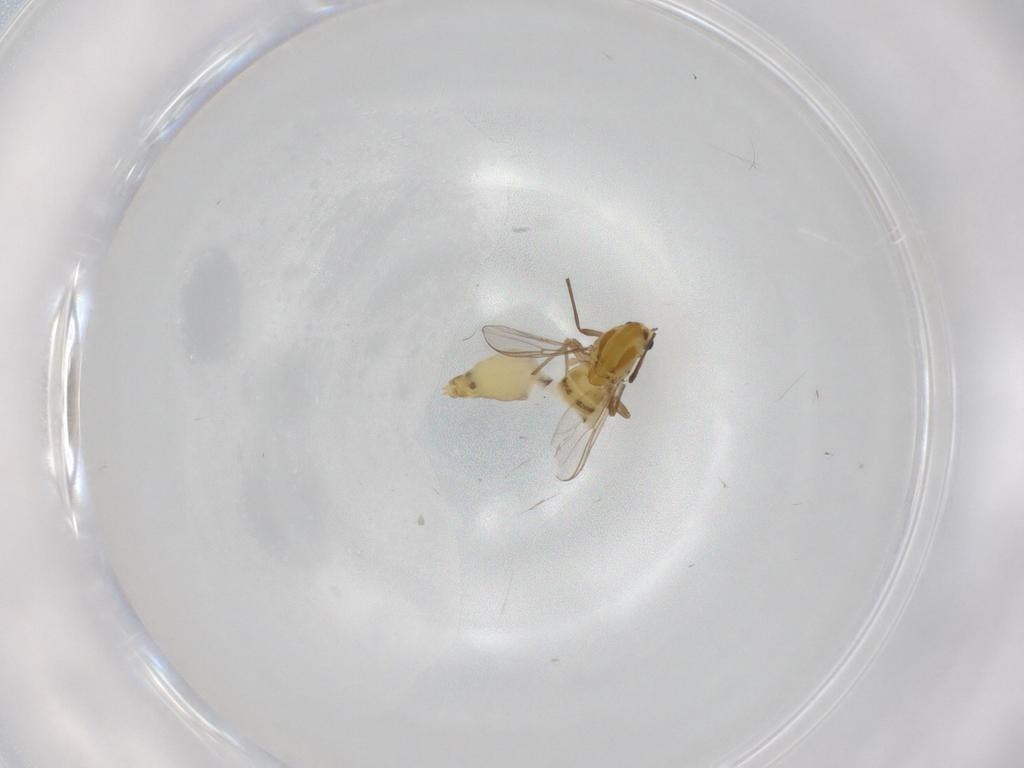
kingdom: Animalia
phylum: Arthropoda
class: Insecta
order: Diptera
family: Chironomidae
